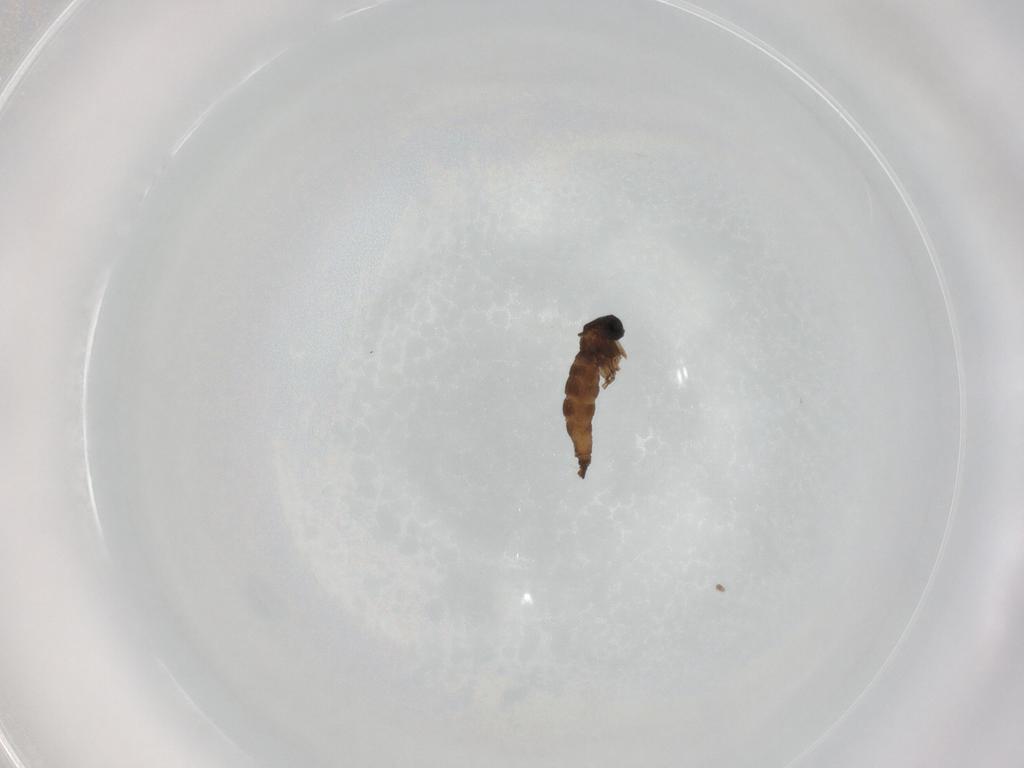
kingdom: Animalia
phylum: Arthropoda
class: Insecta
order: Diptera
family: Sciaridae
